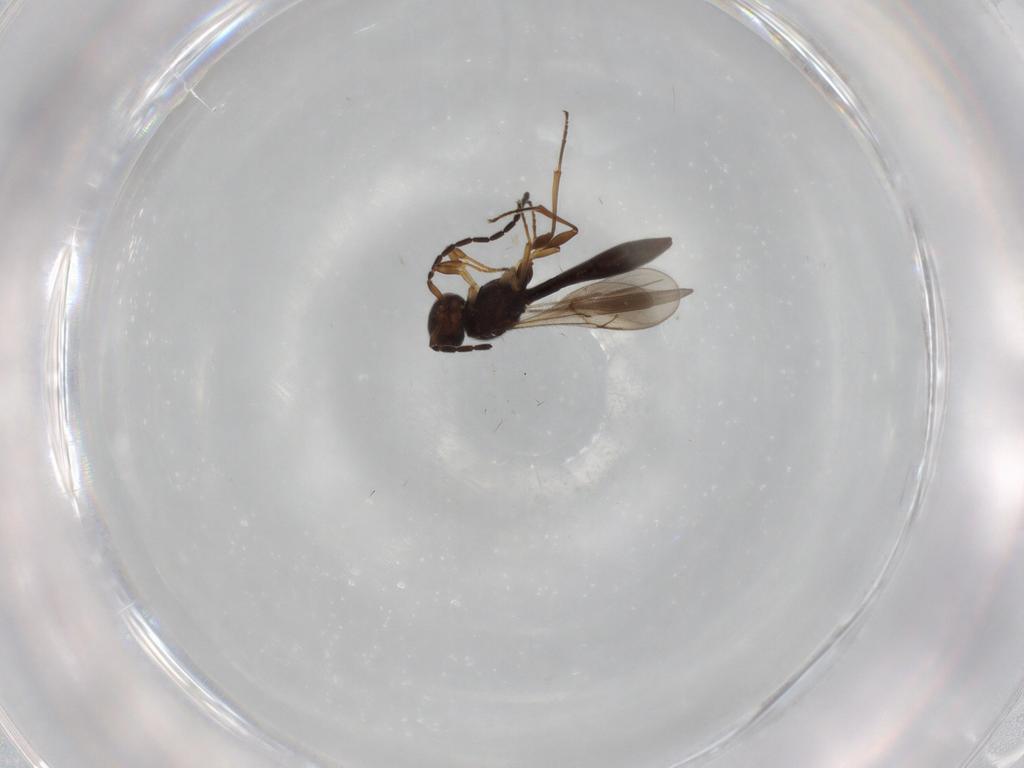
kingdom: Animalia
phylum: Arthropoda
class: Insecta
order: Hymenoptera
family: Scelionidae
